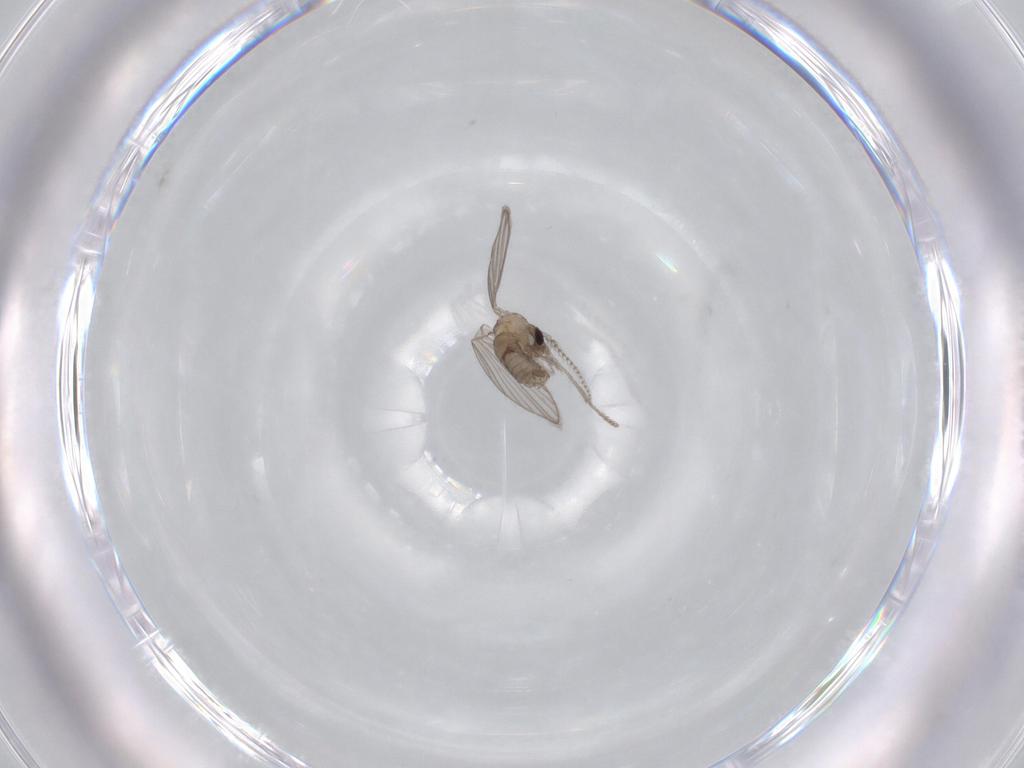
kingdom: Animalia
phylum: Arthropoda
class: Insecta
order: Diptera
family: Psychodidae
